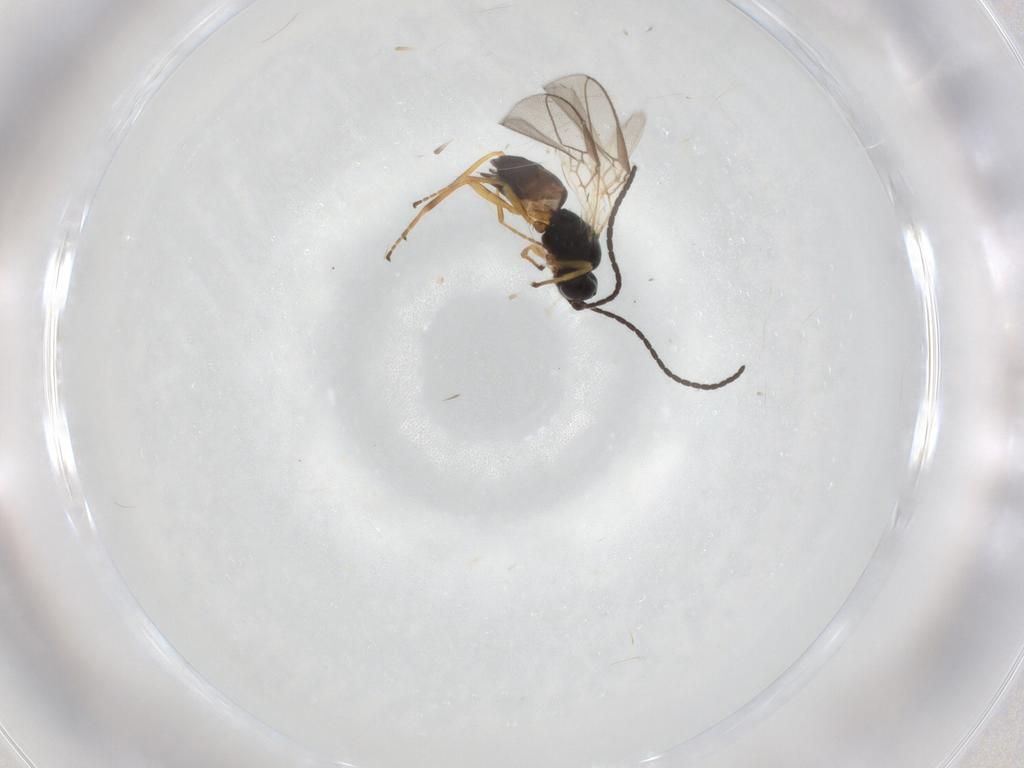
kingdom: Animalia
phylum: Arthropoda
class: Insecta
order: Hymenoptera
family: Braconidae
